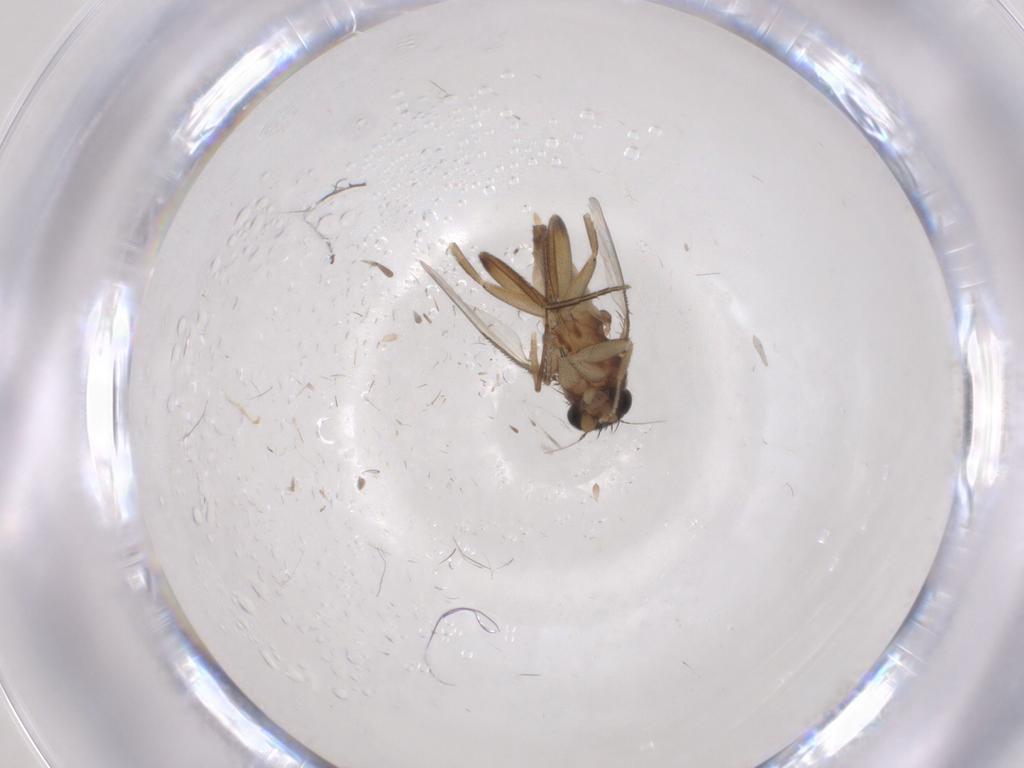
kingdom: Animalia
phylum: Arthropoda
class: Insecta
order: Diptera
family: Phoridae
